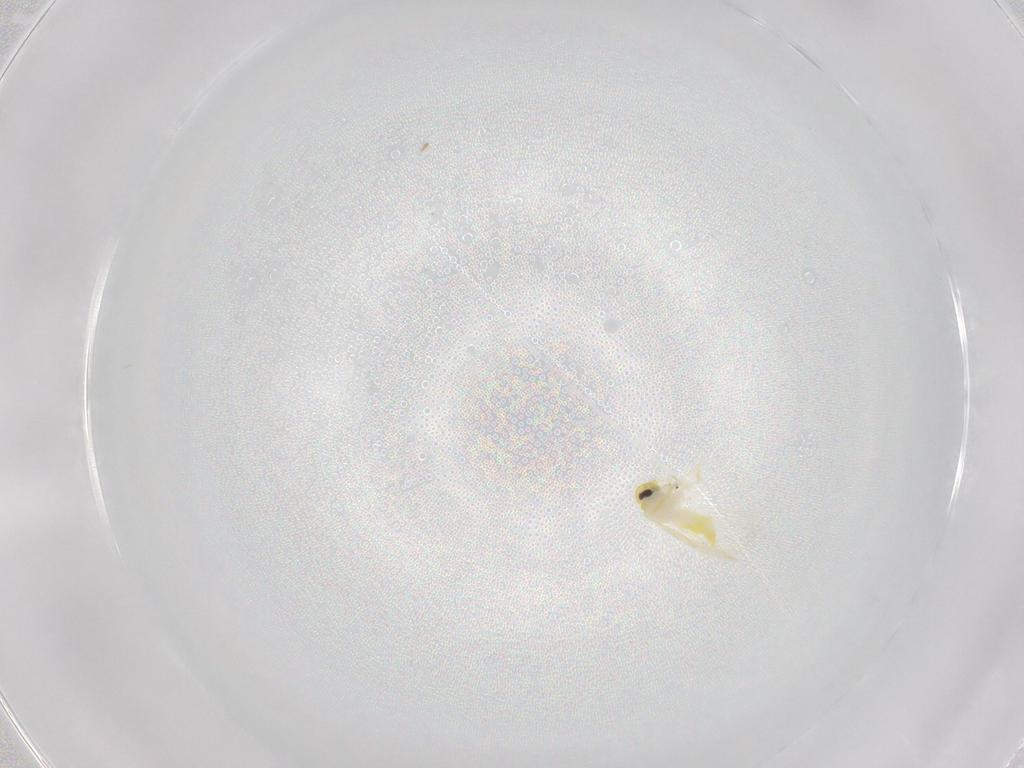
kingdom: Animalia
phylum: Arthropoda
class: Insecta
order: Hemiptera
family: Aleyrodidae
